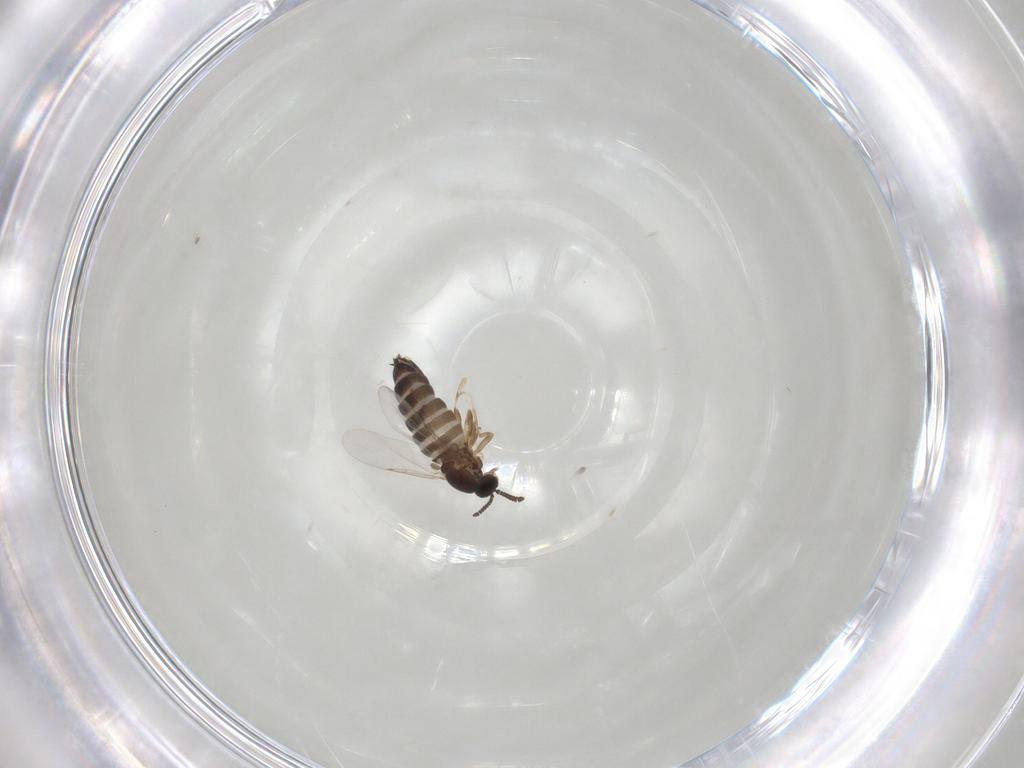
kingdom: Animalia
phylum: Arthropoda
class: Insecta
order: Diptera
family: Scatopsidae
